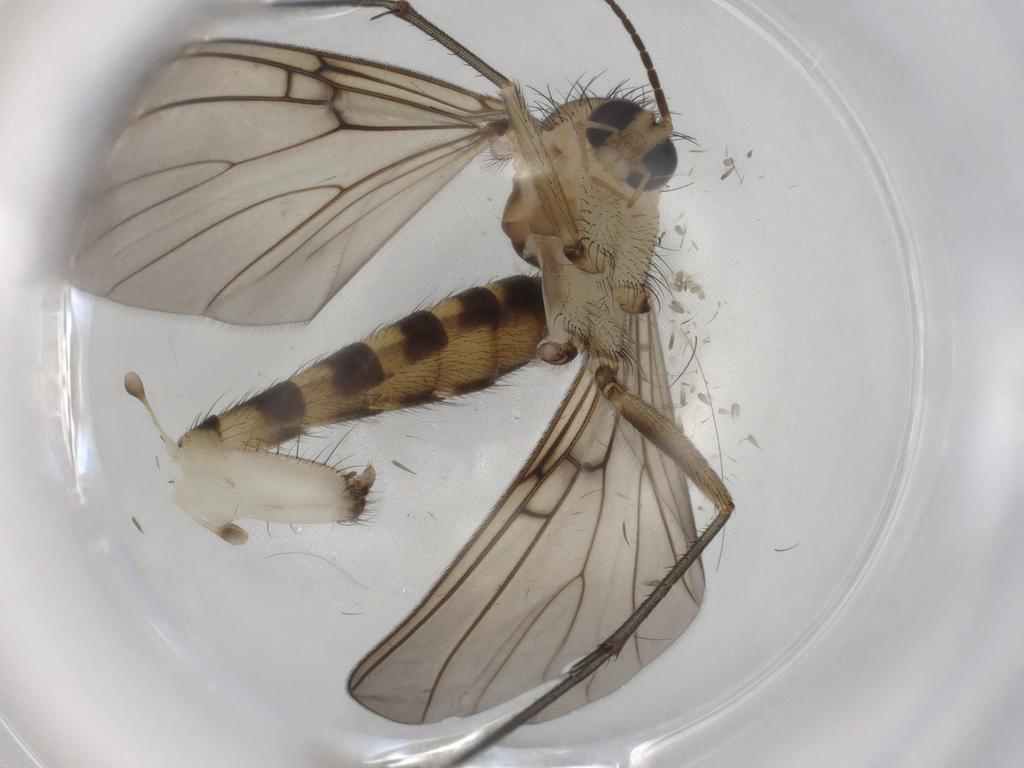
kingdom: Animalia
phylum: Arthropoda
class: Insecta
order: Diptera
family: Mycetophilidae
